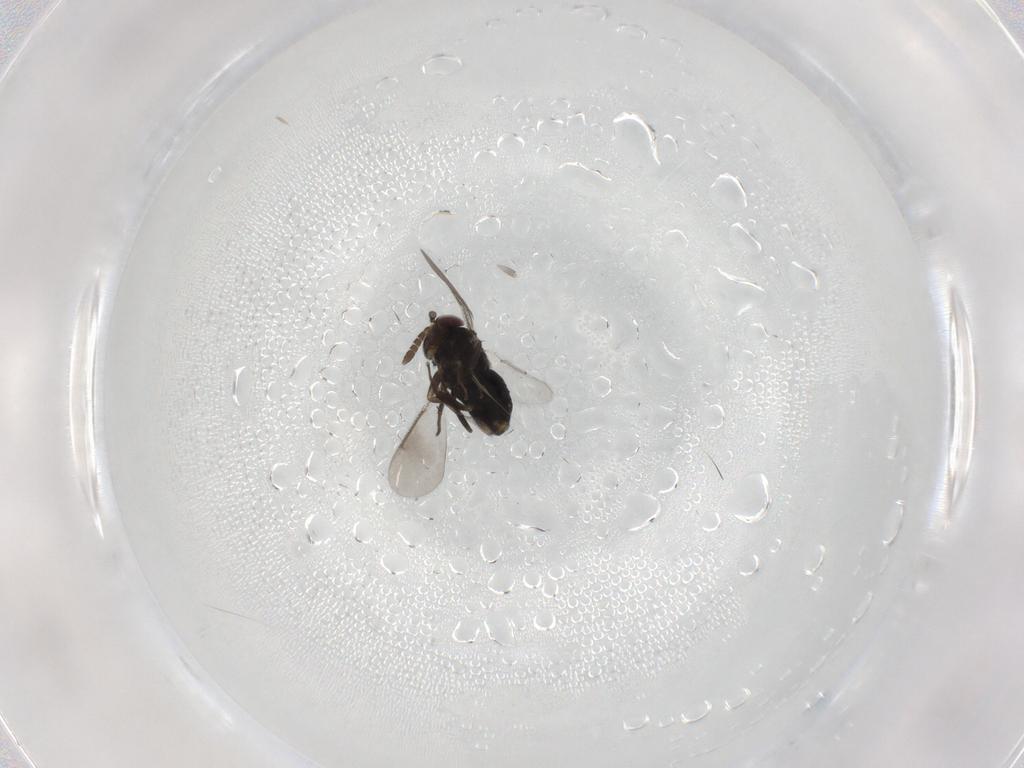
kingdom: Animalia
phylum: Arthropoda
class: Insecta
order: Hymenoptera
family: Aphelinidae
